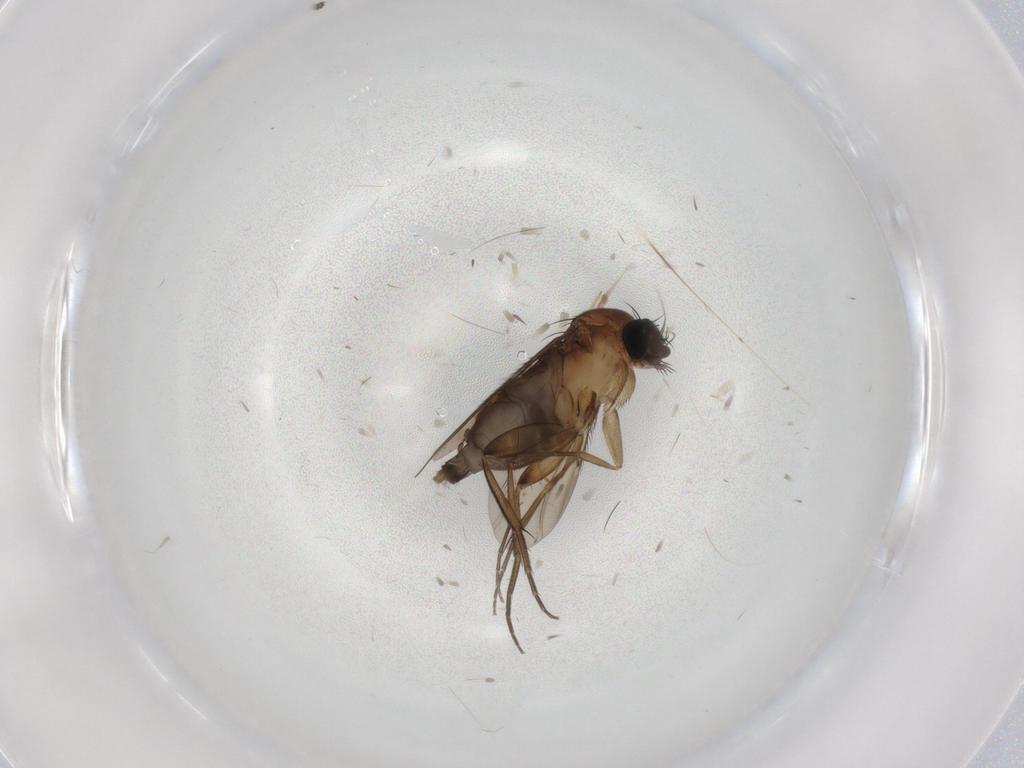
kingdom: Animalia
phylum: Arthropoda
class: Insecta
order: Diptera
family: Phoridae
